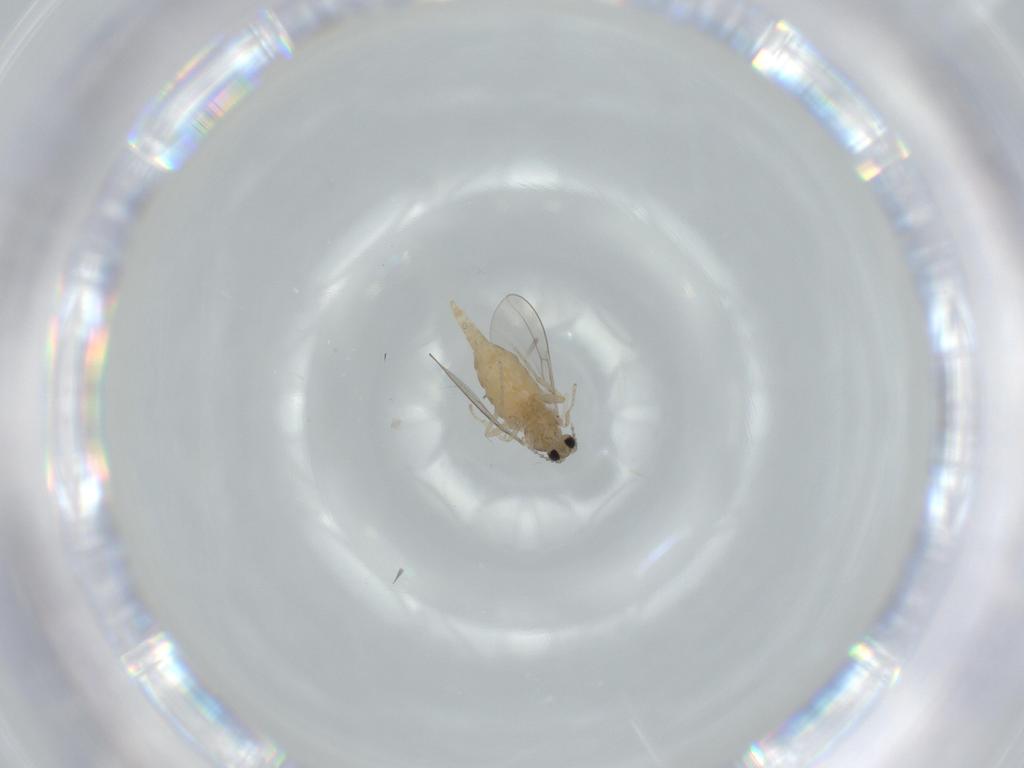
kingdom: Animalia
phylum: Arthropoda
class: Insecta
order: Diptera
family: Cecidomyiidae
